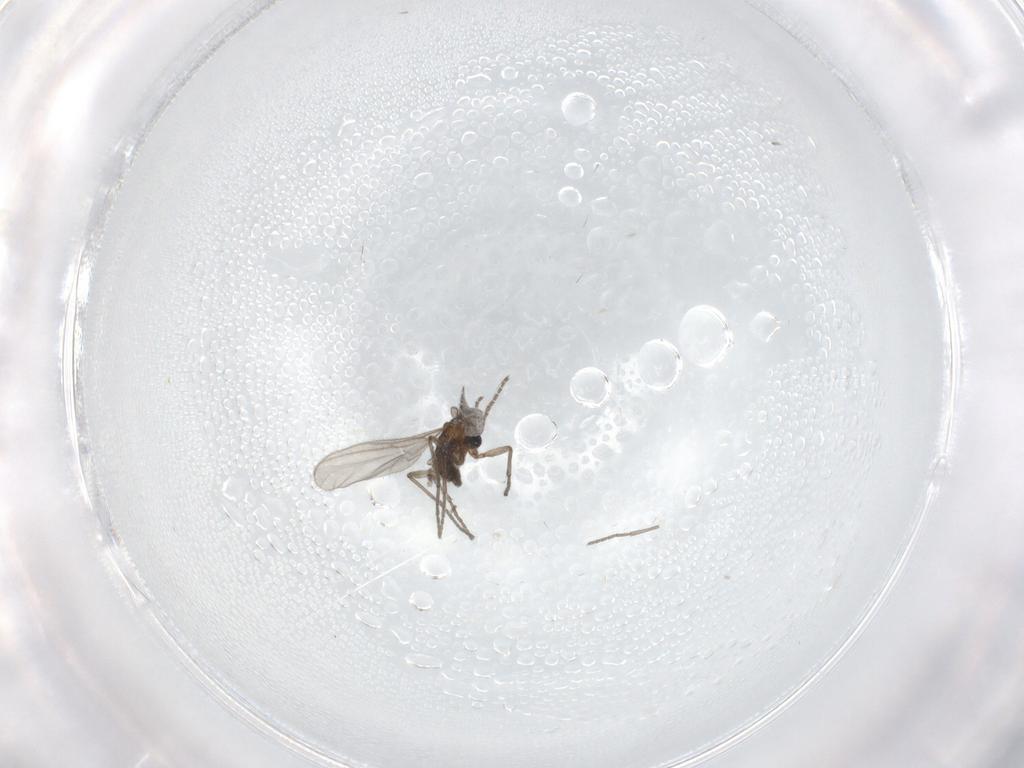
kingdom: Animalia
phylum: Arthropoda
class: Insecta
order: Diptera
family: Sciaridae
